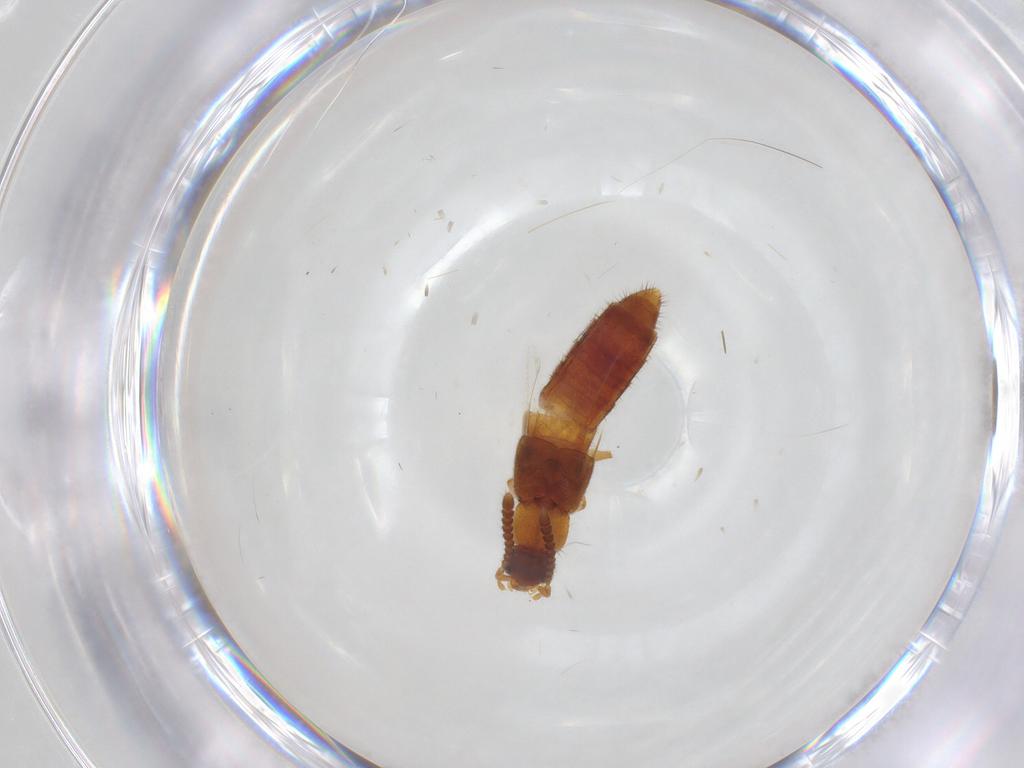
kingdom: Animalia
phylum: Arthropoda
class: Insecta
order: Coleoptera
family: Staphylinidae
